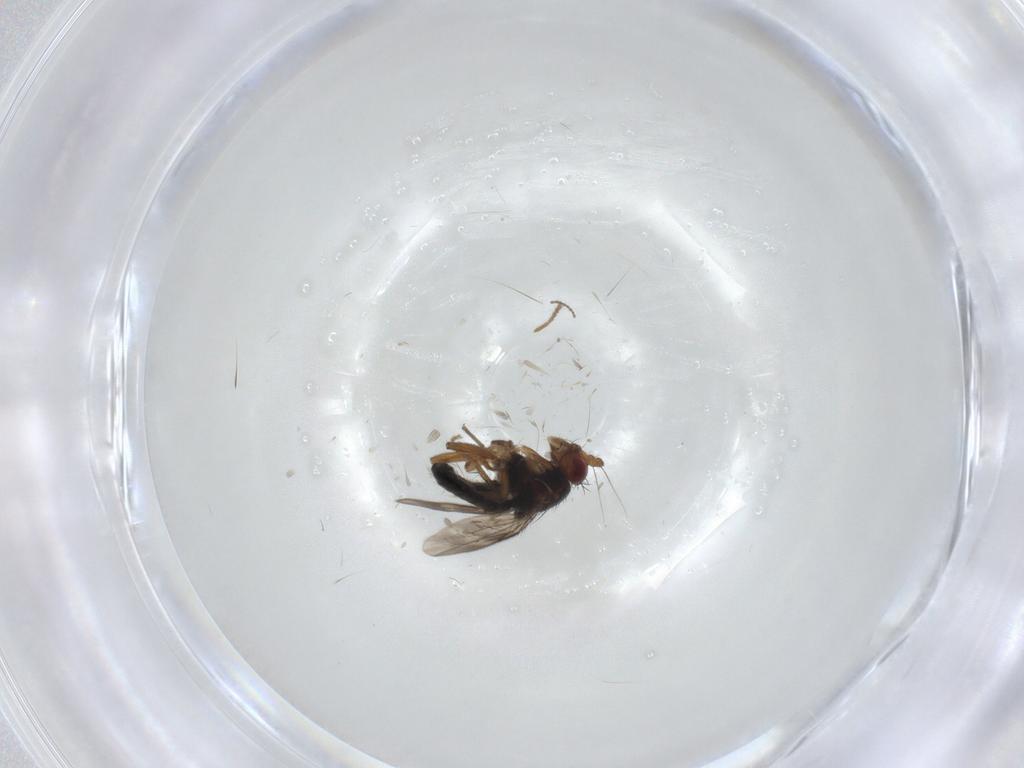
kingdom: Animalia
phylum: Arthropoda
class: Insecta
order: Diptera
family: Sphaeroceridae
